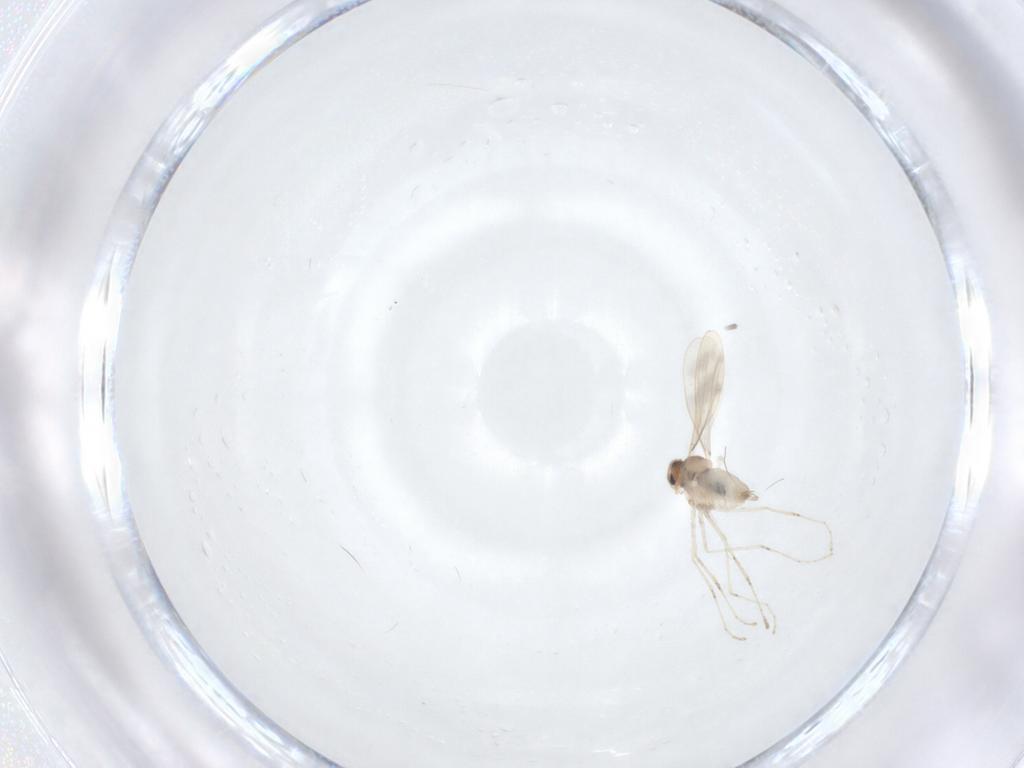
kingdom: Animalia
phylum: Arthropoda
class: Insecta
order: Diptera
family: Cecidomyiidae
